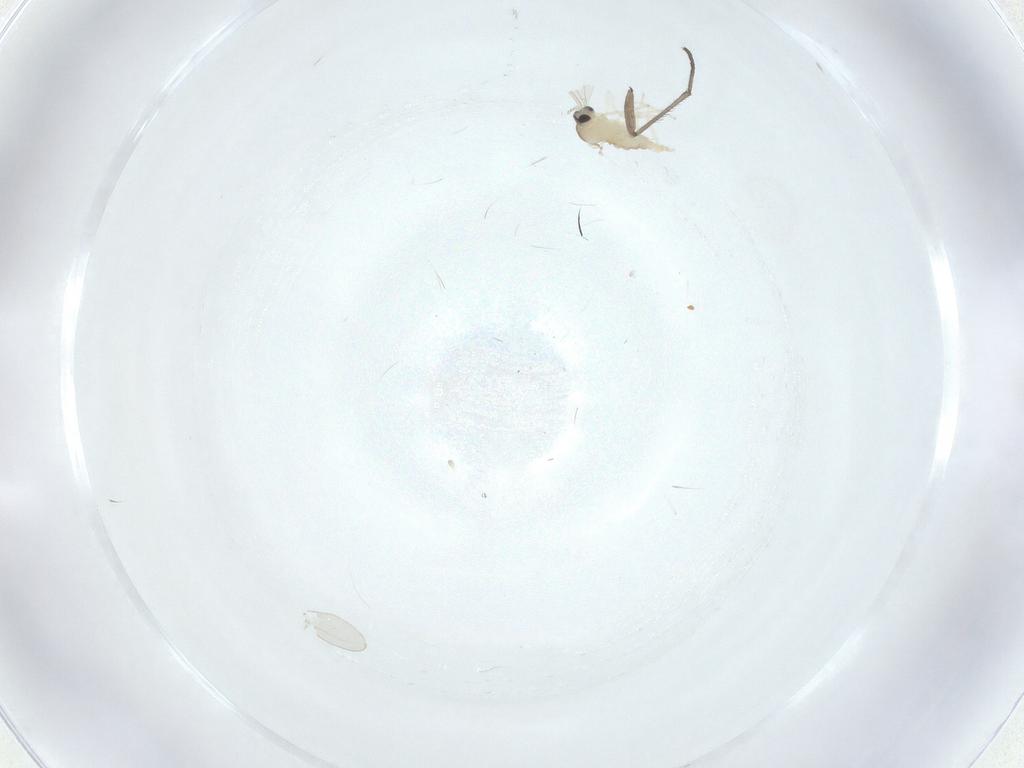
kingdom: Animalia
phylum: Arthropoda
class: Insecta
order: Diptera
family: Cecidomyiidae
